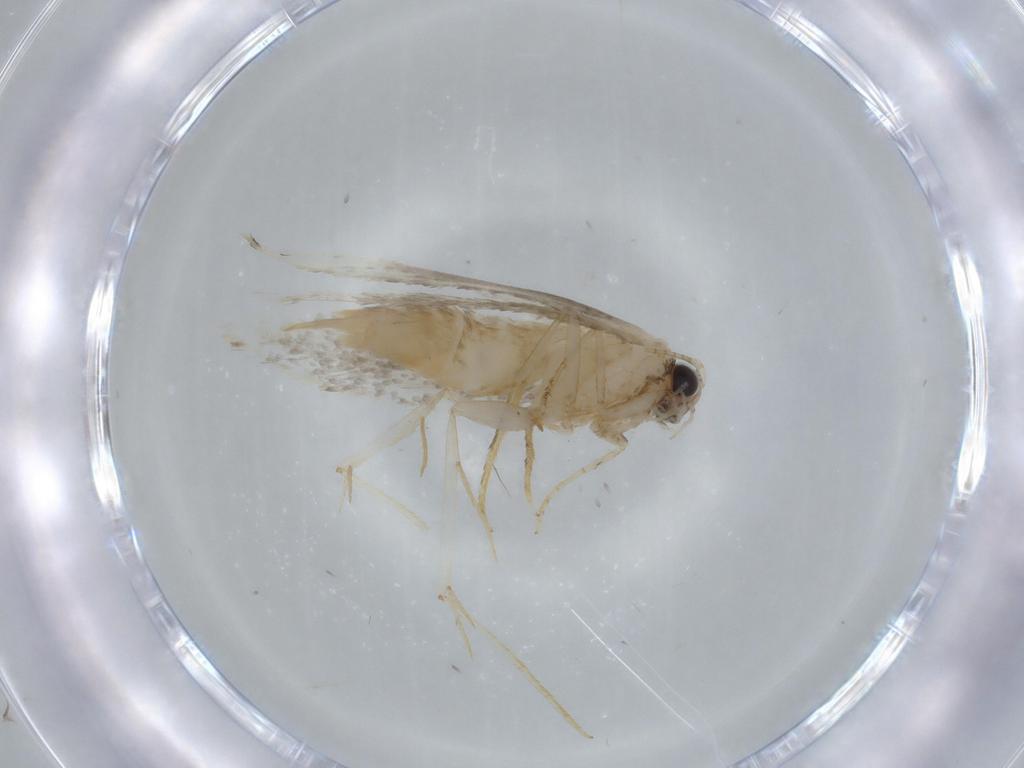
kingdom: Animalia
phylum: Arthropoda
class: Insecta
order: Lepidoptera
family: Tineidae
